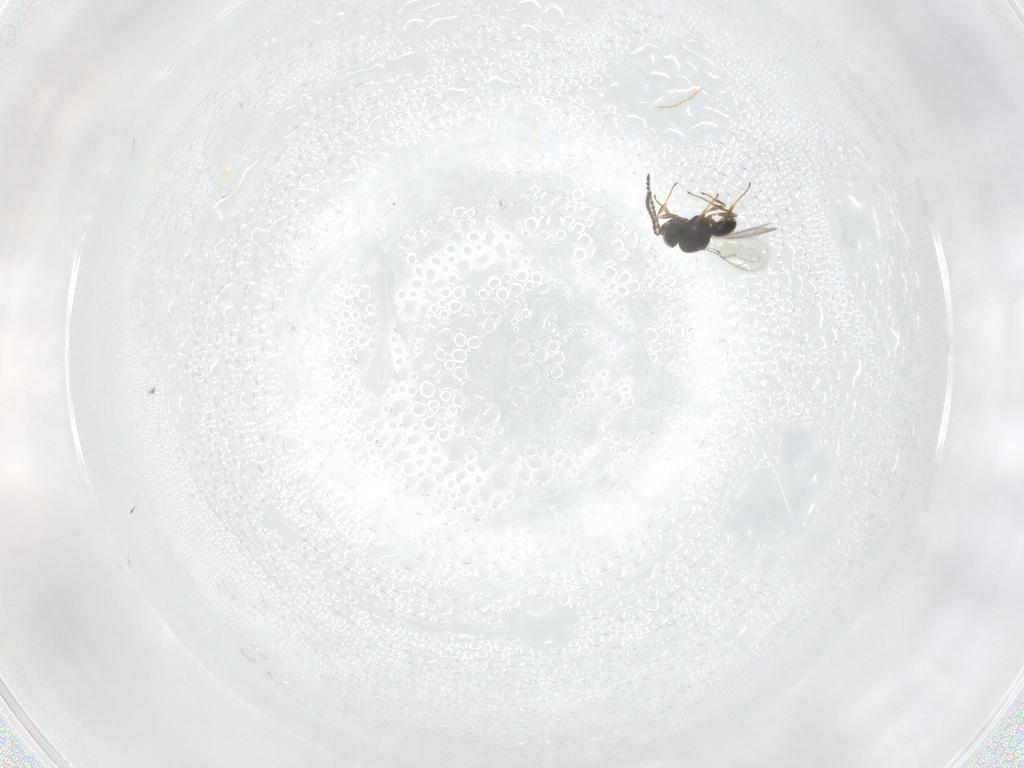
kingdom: Animalia
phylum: Arthropoda
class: Insecta
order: Hymenoptera
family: Scelionidae
